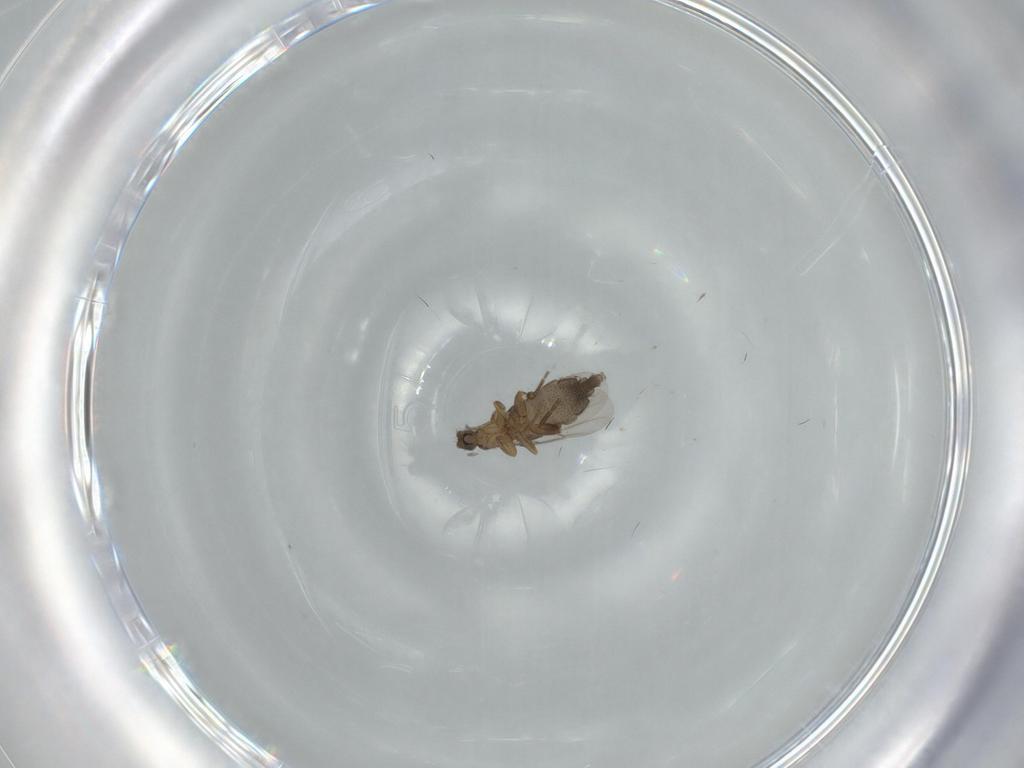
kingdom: Animalia
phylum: Arthropoda
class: Insecta
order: Diptera
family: Phoridae
